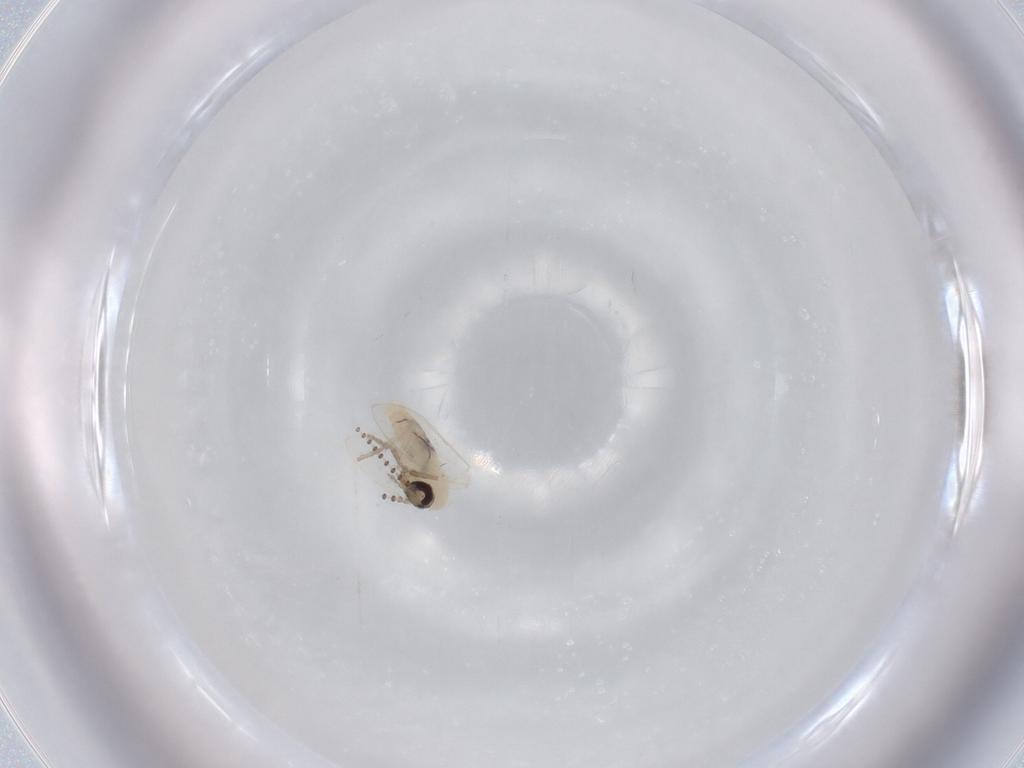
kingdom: Animalia
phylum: Arthropoda
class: Insecta
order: Diptera
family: Psychodidae
